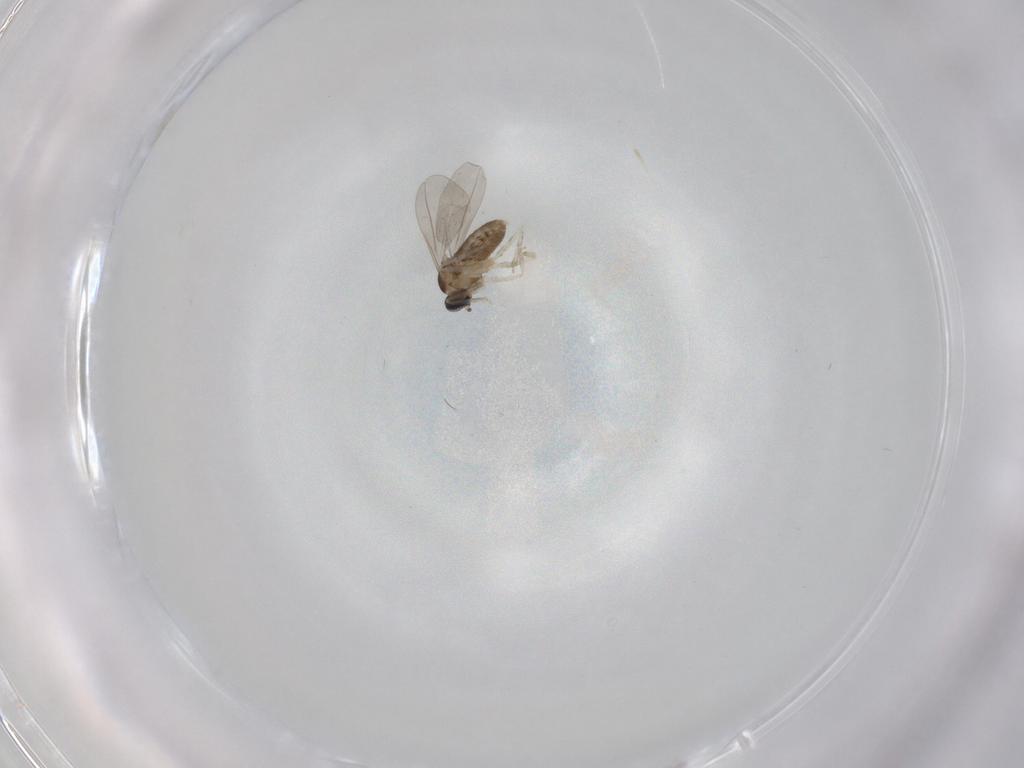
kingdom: Animalia
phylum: Arthropoda
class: Insecta
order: Diptera
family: Cecidomyiidae
